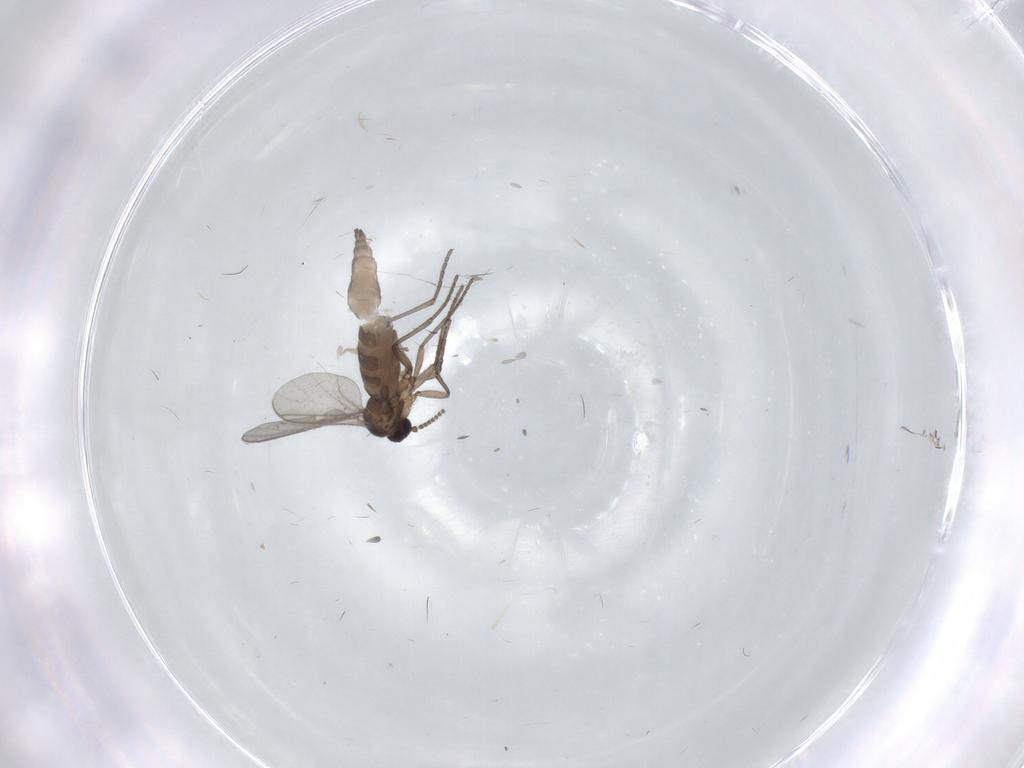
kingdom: Animalia
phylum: Arthropoda
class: Insecta
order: Diptera
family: Cecidomyiidae
